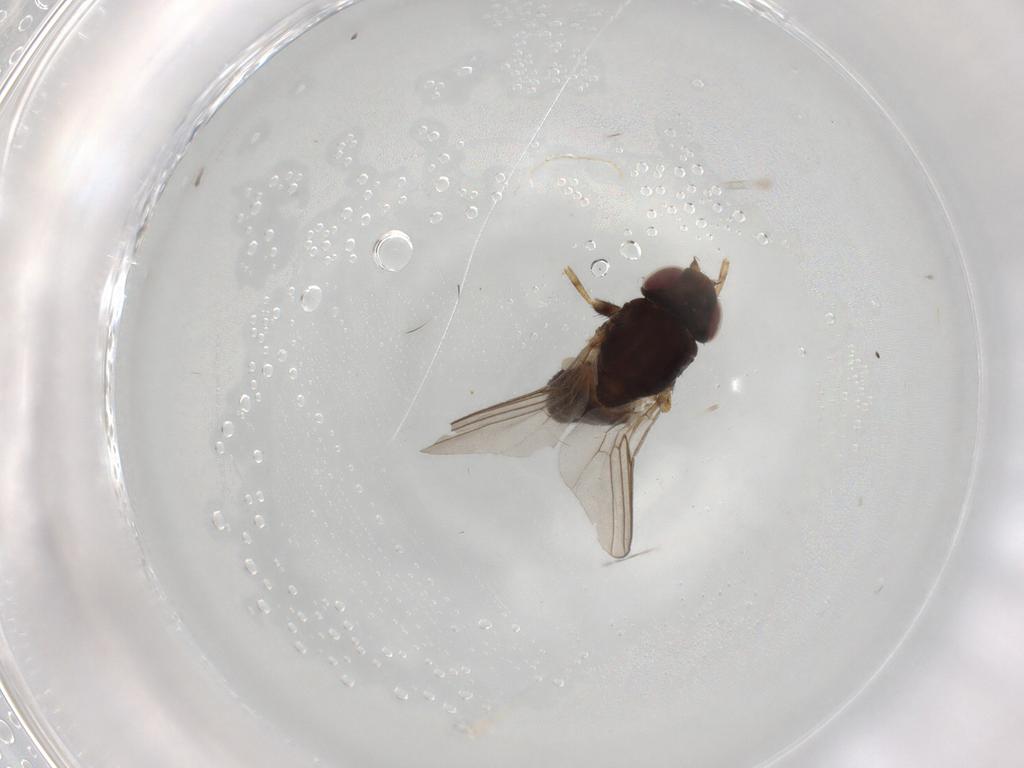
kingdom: Animalia
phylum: Arthropoda
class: Insecta
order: Diptera
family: Chloropidae
